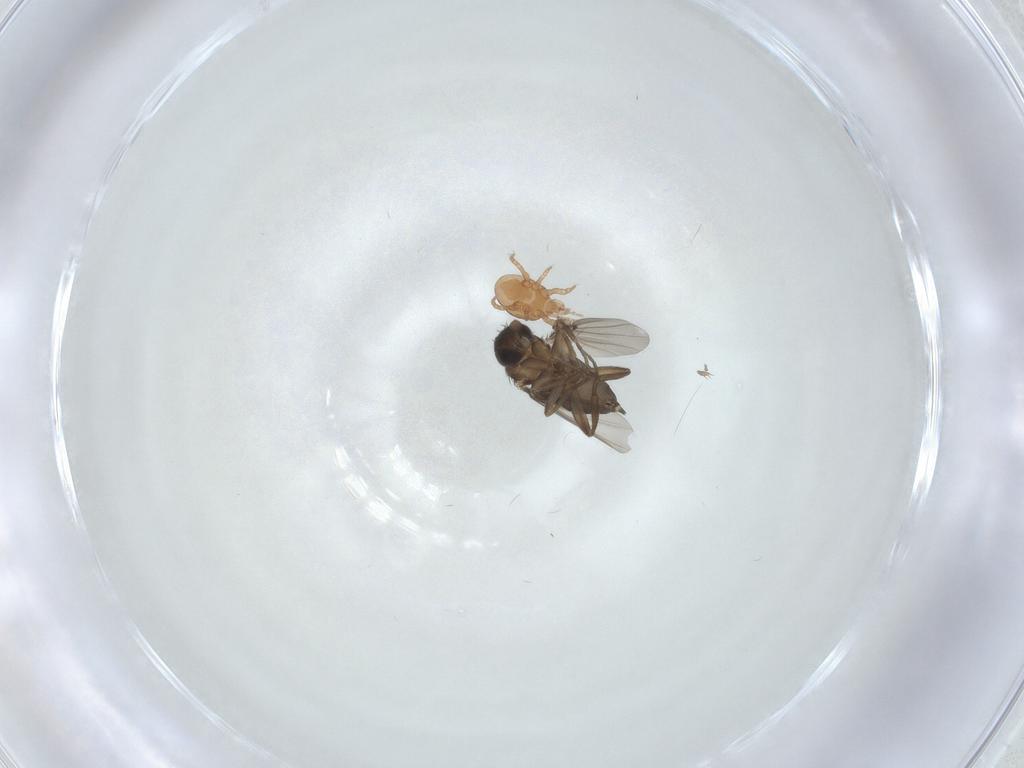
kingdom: Animalia
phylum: Arthropoda
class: Insecta
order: Diptera
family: Phoridae
